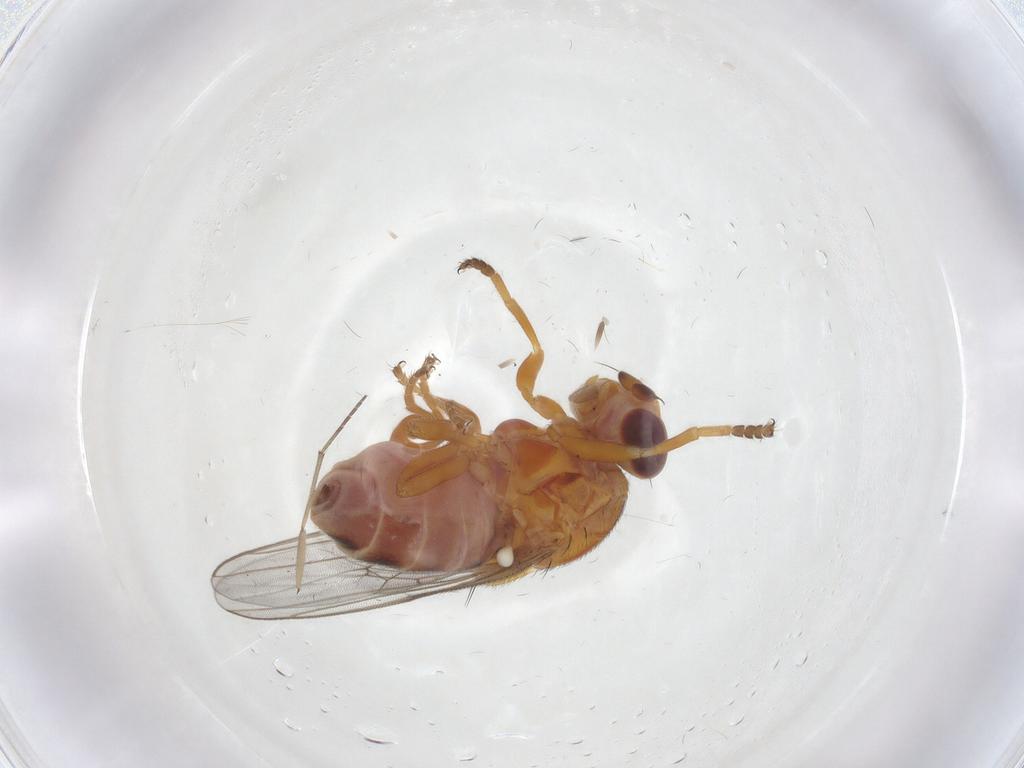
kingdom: Animalia
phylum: Arthropoda
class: Insecta
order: Diptera
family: Chloropidae
